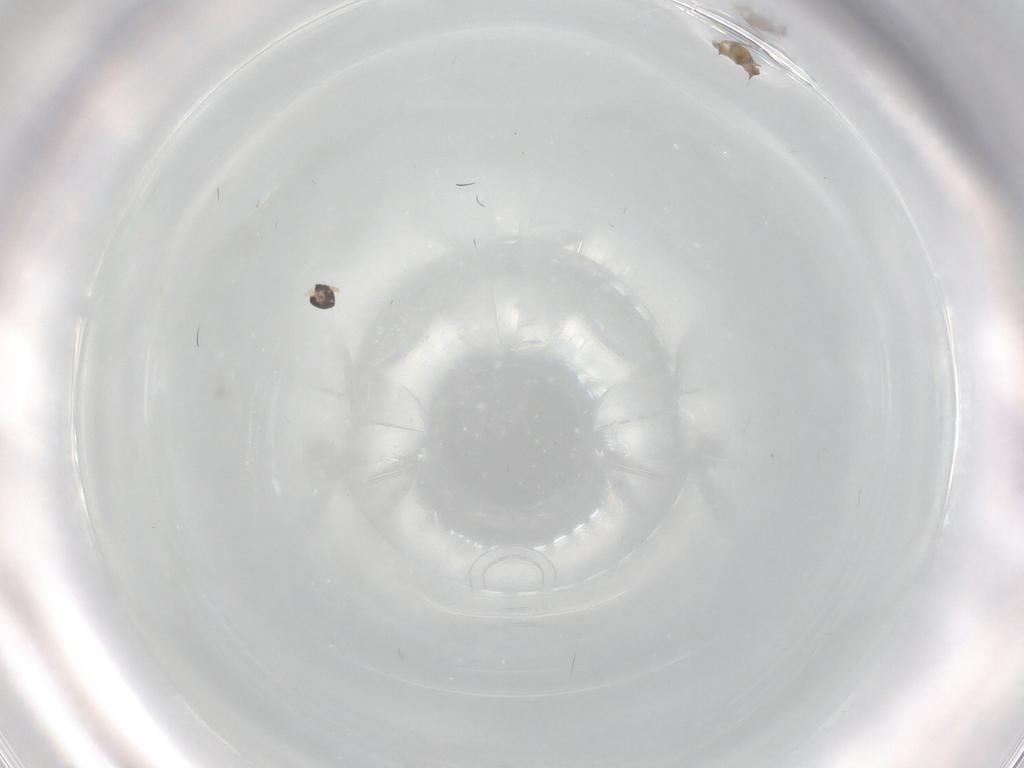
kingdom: Animalia
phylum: Arthropoda
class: Insecta
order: Diptera
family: Cecidomyiidae
